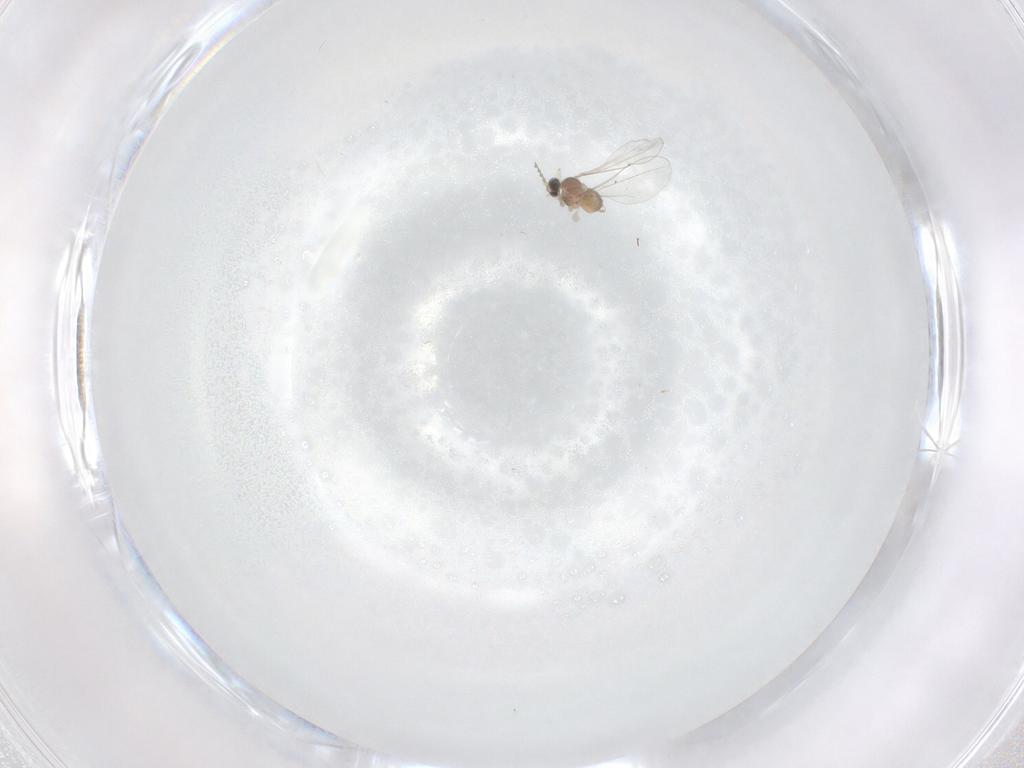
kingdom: Animalia
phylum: Arthropoda
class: Insecta
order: Diptera
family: Cecidomyiidae
